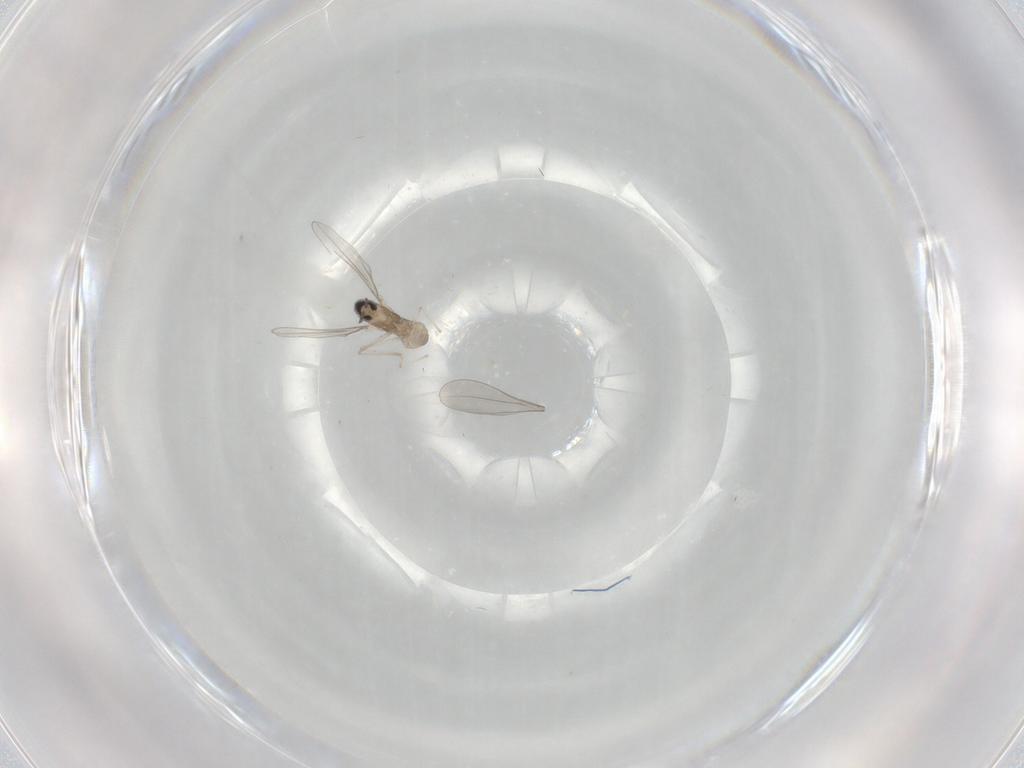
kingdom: Animalia
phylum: Arthropoda
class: Insecta
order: Diptera
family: Cecidomyiidae
